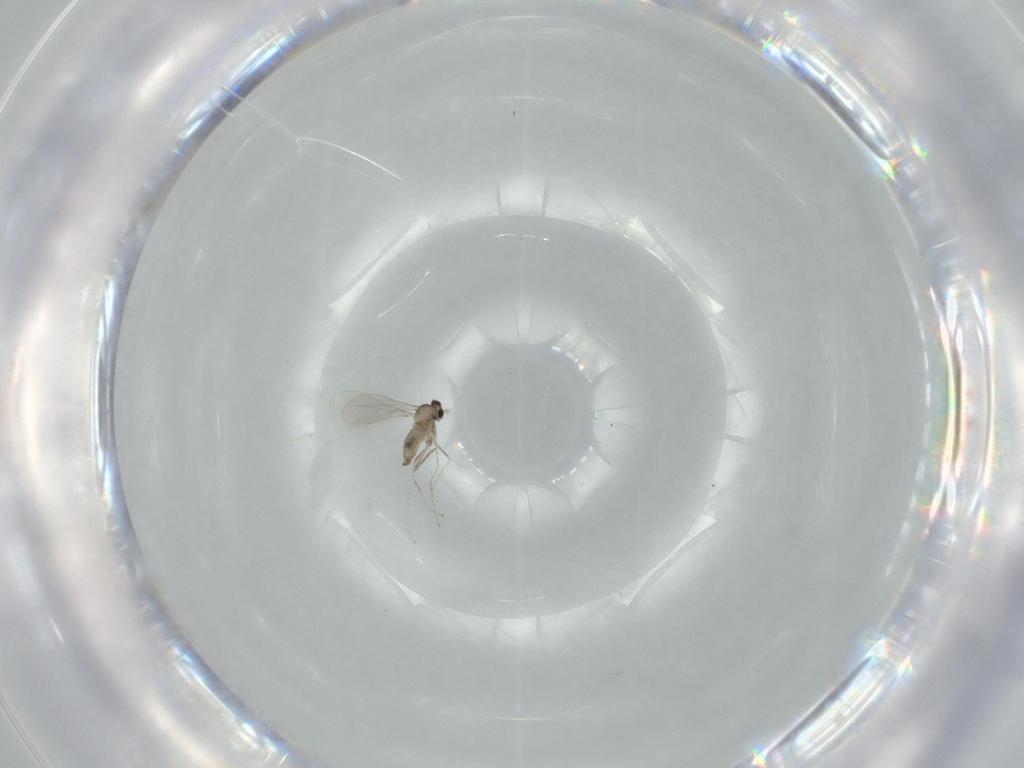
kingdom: Animalia
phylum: Arthropoda
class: Insecta
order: Diptera
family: Cecidomyiidae
